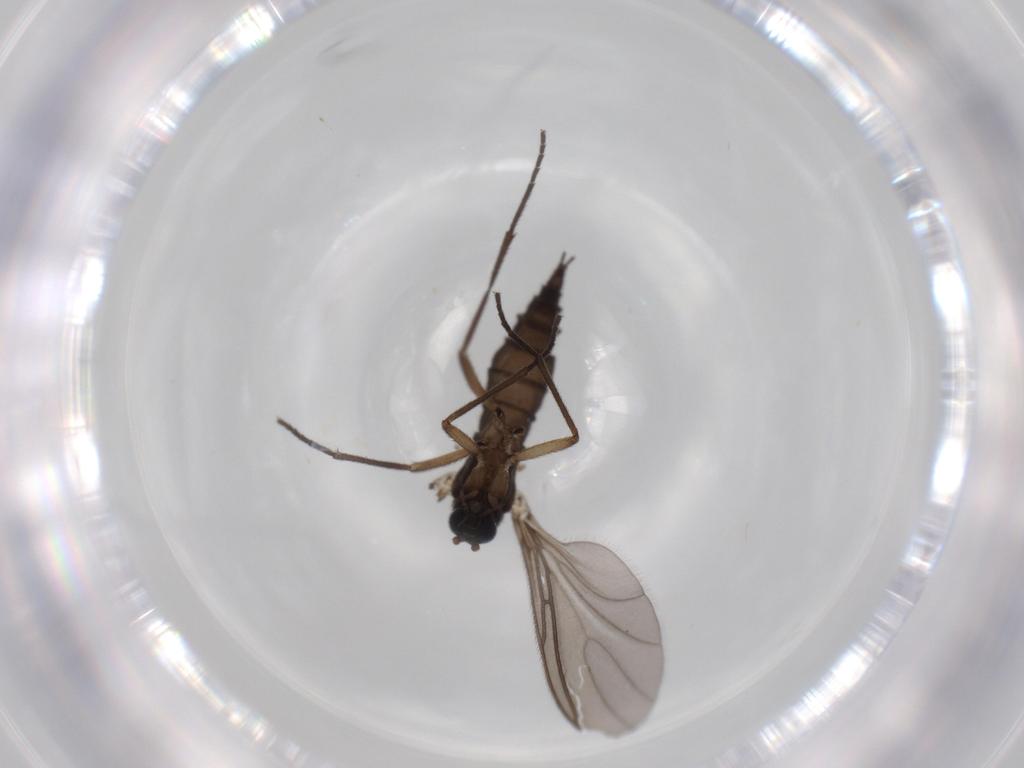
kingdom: Animalia
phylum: Arthropoda
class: Insecta
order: Diptera
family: Sciaridae
